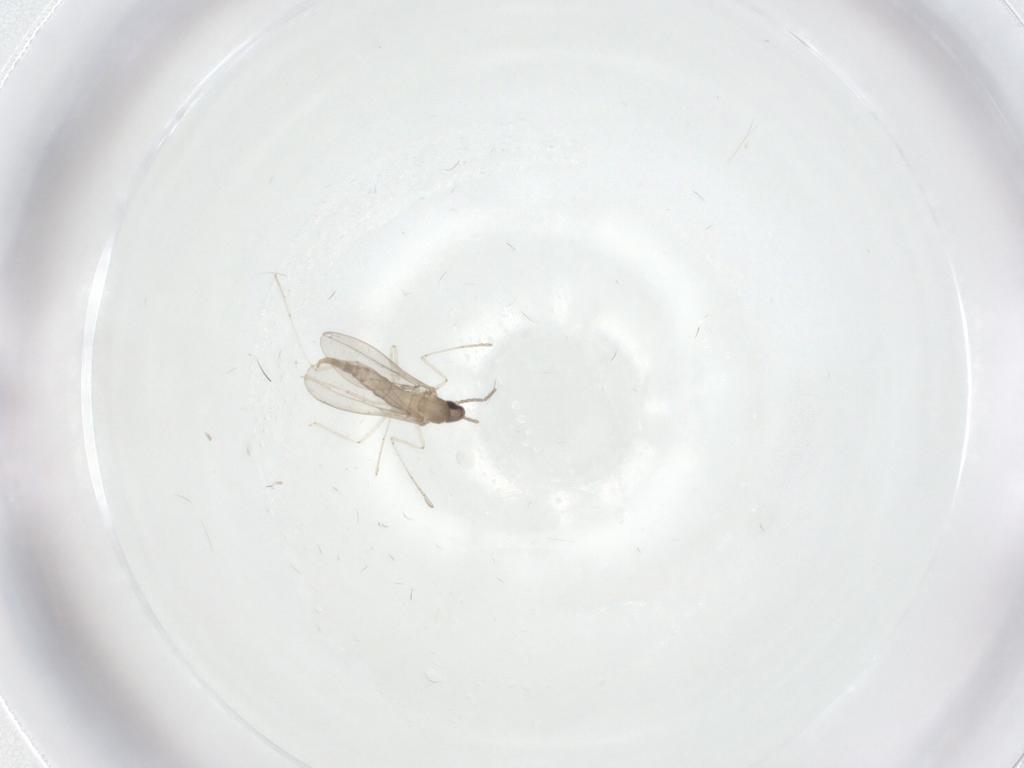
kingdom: Animalia
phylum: Arthropoda
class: Insecta
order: Diptera
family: Cecidomyiidae
